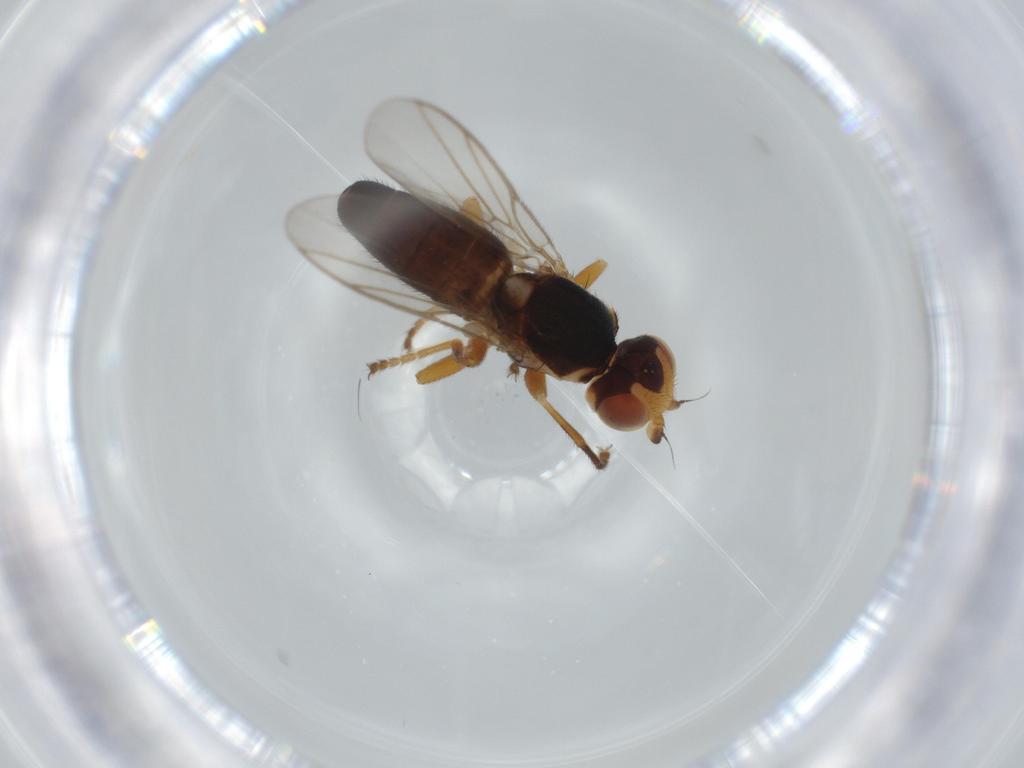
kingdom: Animalia
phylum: Arthropoda
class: Insecta
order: Diptera
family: Chloropidae
